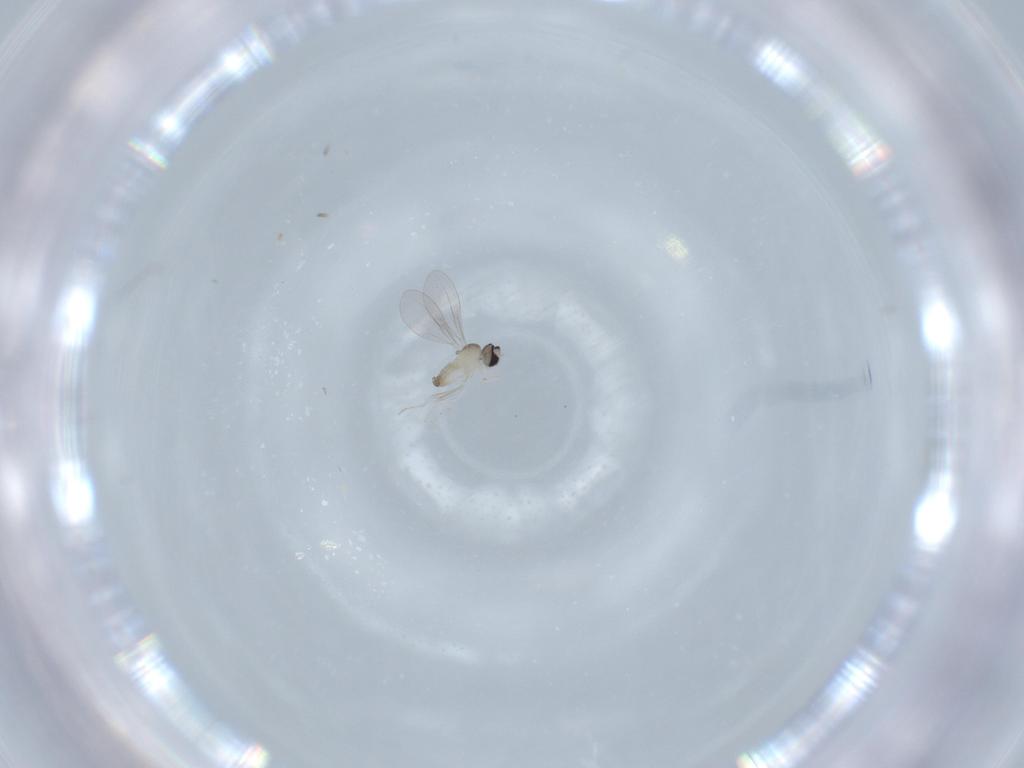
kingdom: Animalia
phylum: Arthropoda
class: Insecta
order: Diptera
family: Cecidomyiidae
